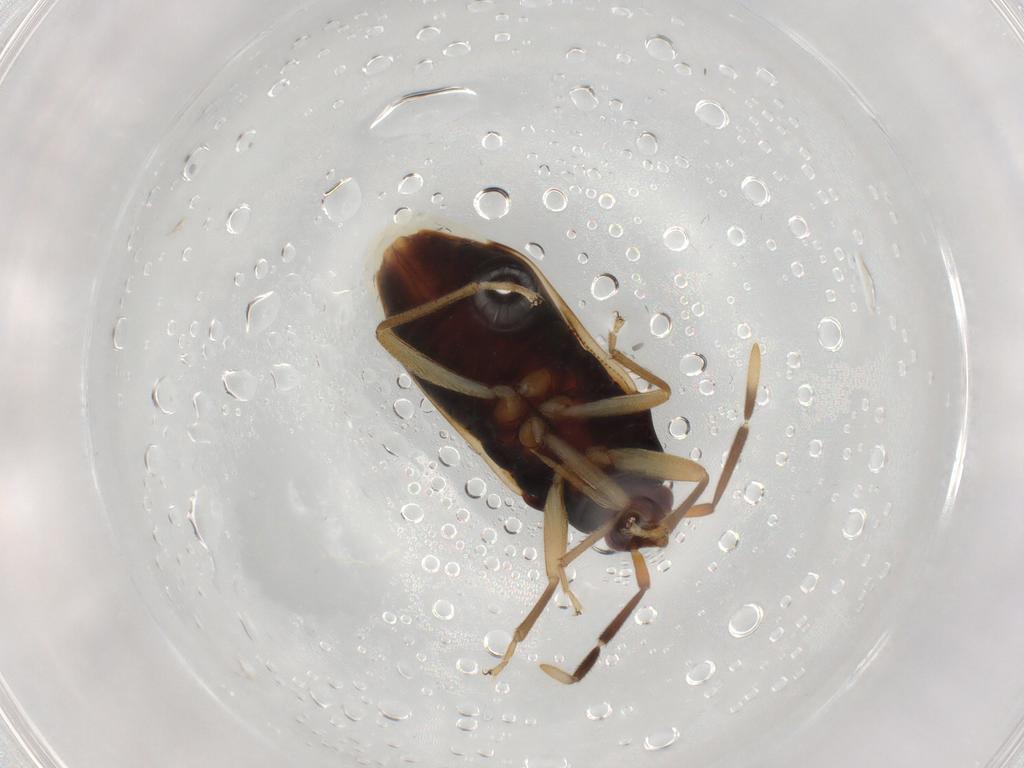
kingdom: Animalia
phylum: Arthropoda
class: Insecta
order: Hemiptera
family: Rhyparochromidae
